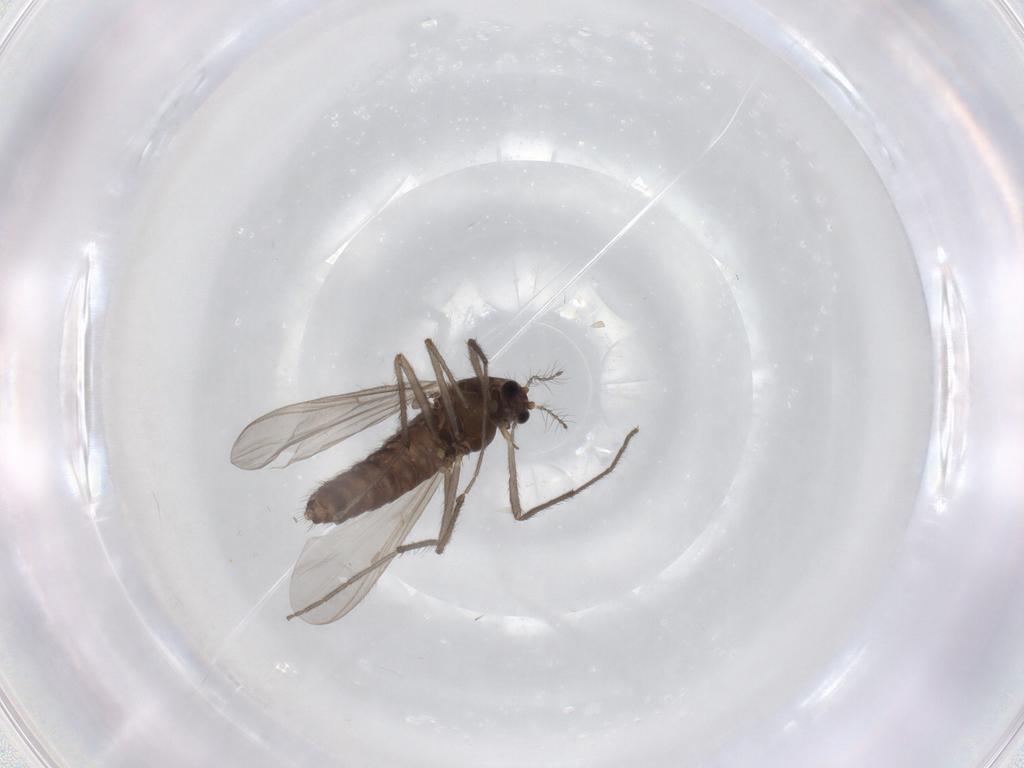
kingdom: Animalia
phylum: Arthropoda
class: Insecta
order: Diptera
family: Chironomidae
